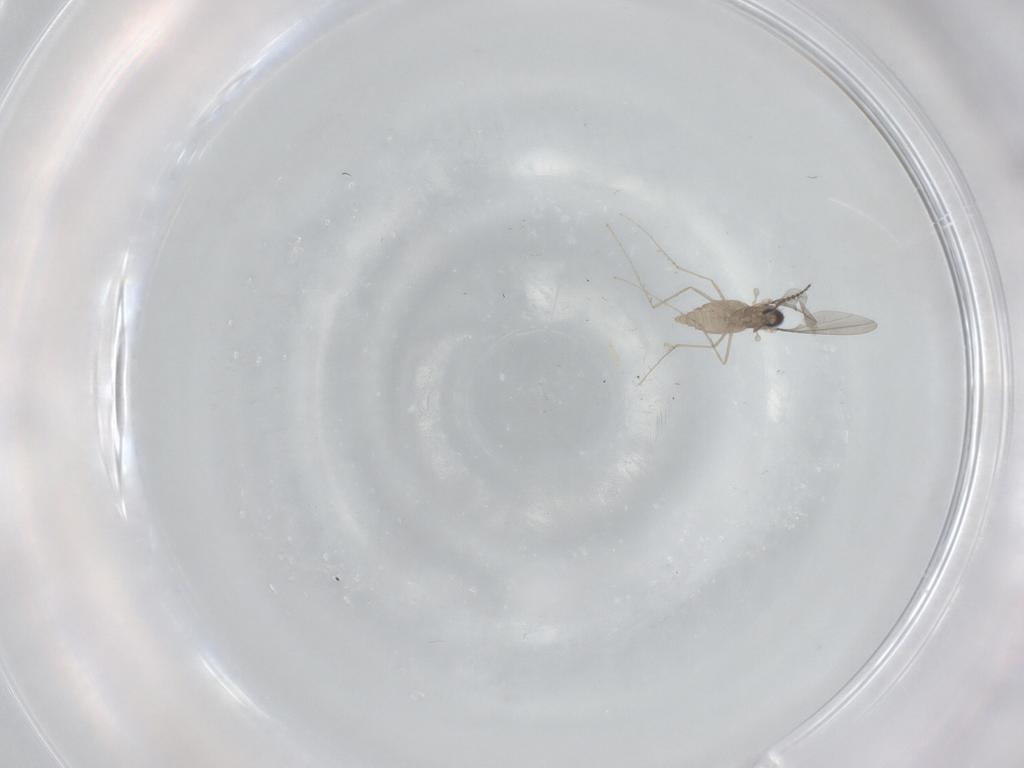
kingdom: Animalia
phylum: Arthropoda
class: Insecta
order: Diptera
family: Cecidomyiidae
